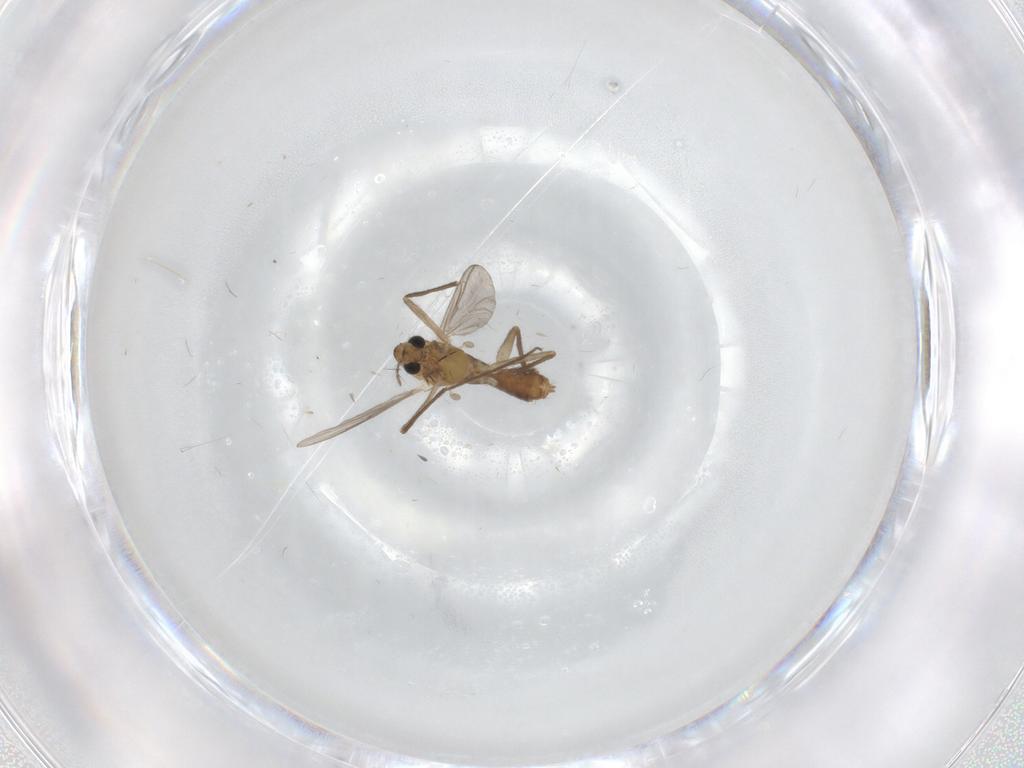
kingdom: Animalia
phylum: Arthropoda
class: Insecta
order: Diptera
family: Chironomidae
